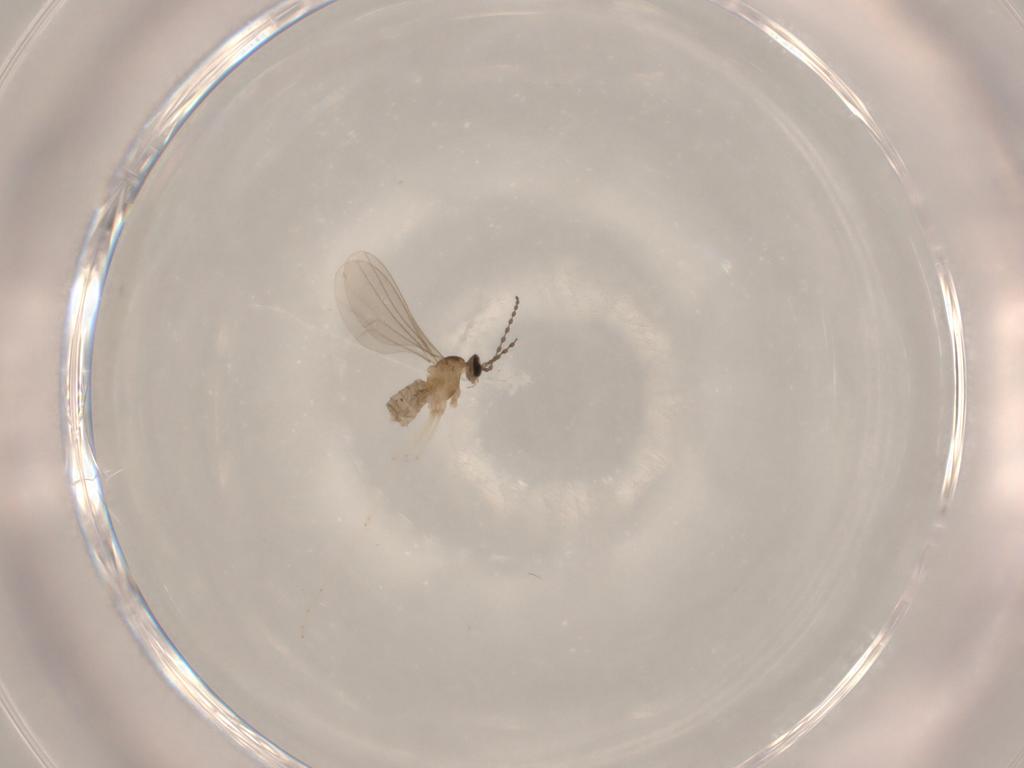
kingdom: Animalia
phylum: Arthropoda
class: Insecta
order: Diptera
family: Cecidomyiidae
